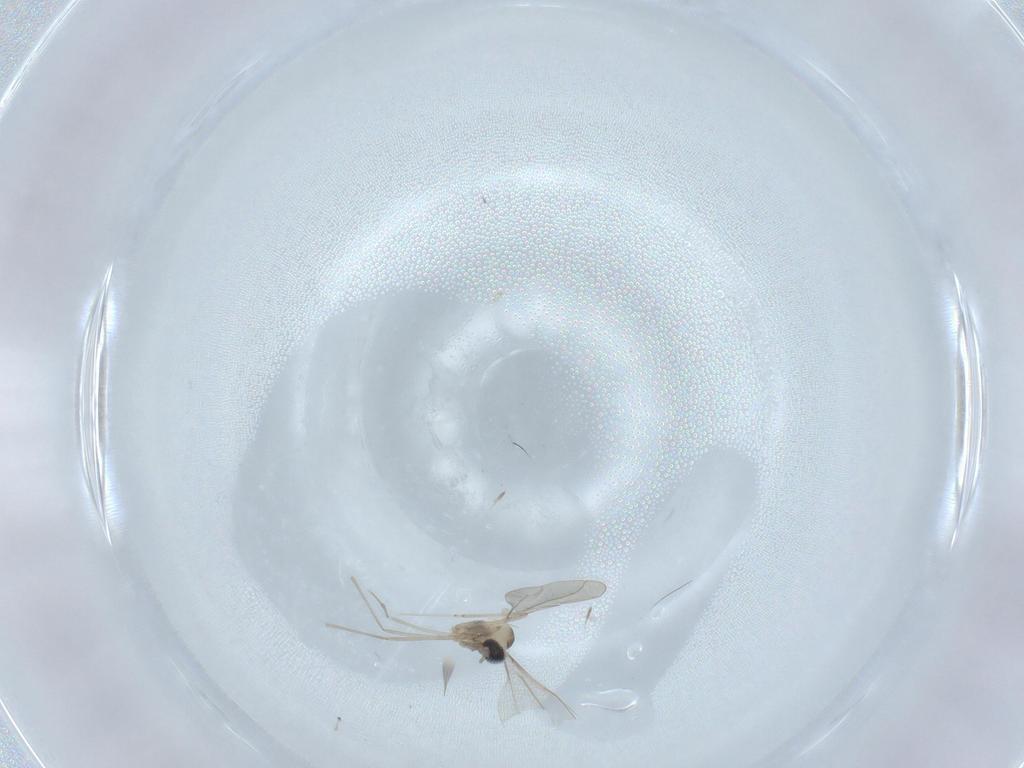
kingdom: Animalia
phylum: Arthropoda
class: Insecta
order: Diptera
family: Cecidomyiidae
